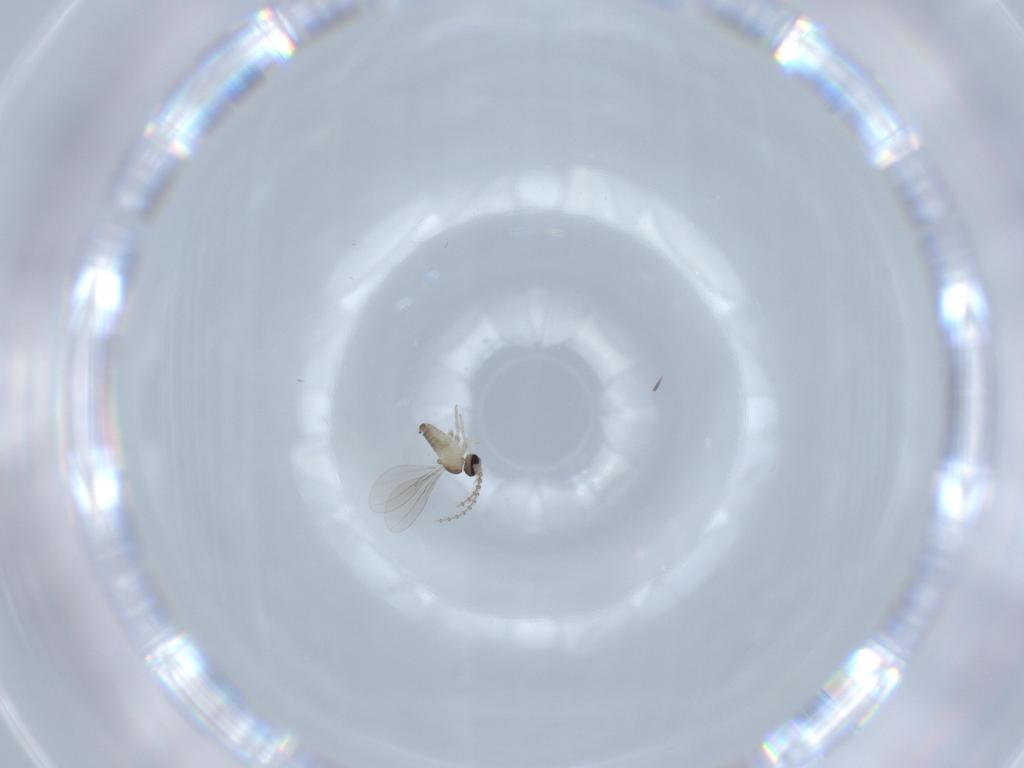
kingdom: Animalia
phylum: Arthropoda
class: Insecta
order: Diptera
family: Cecidomyiidae
